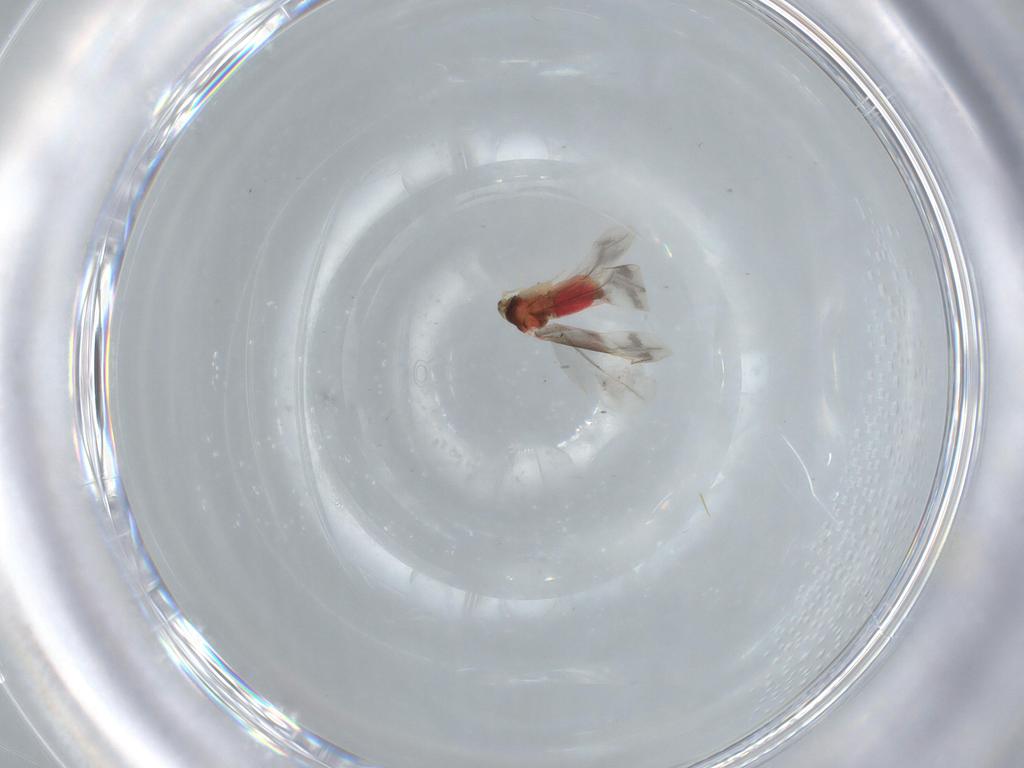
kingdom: Animalia
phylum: Arthropoda
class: Insecta
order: Hemiptera
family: Aleyrodidae
